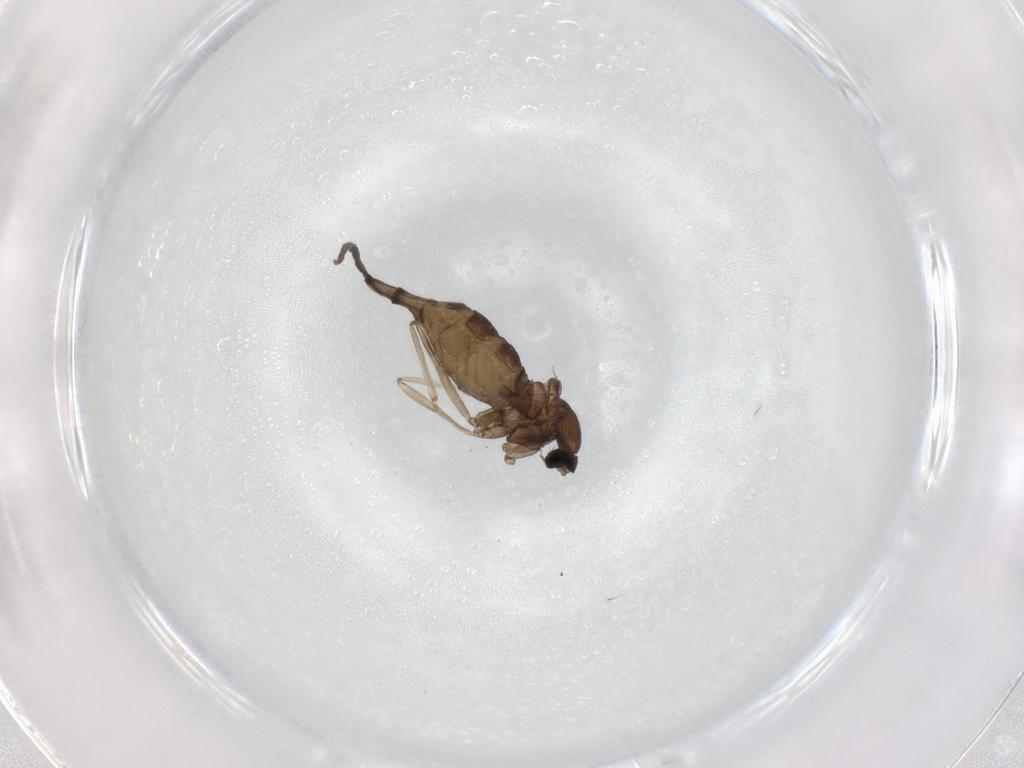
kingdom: Animalia
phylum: Arthropoda
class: Insecta
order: Diptera
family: Cecidomyiidae
